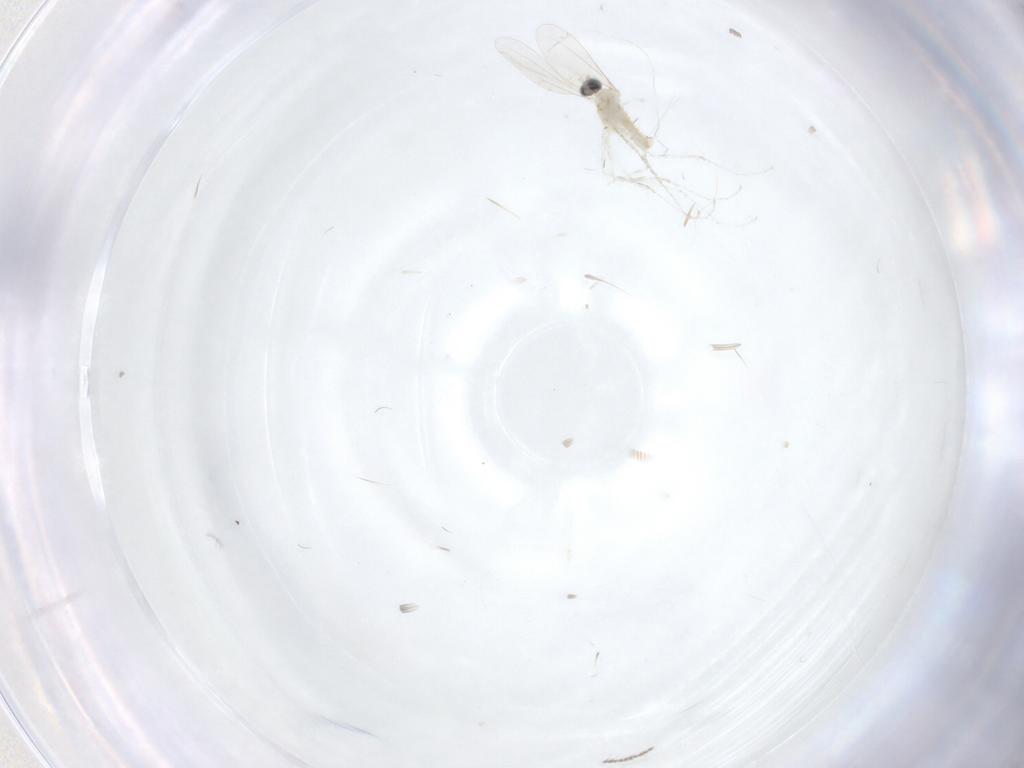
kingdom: Animalia
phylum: Arthropoda
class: Insecta
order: Diptera
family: Cecidomyiidae
